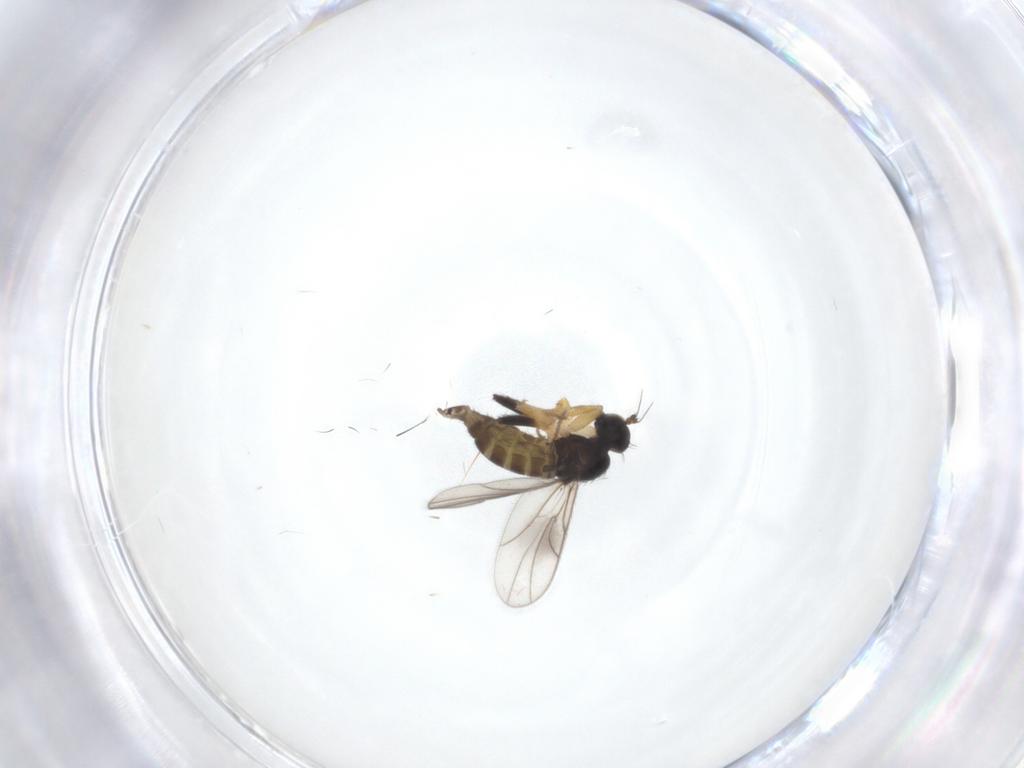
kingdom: Animalia
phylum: Arthropoda
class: Insecta
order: Diptera
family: Hybotidae
